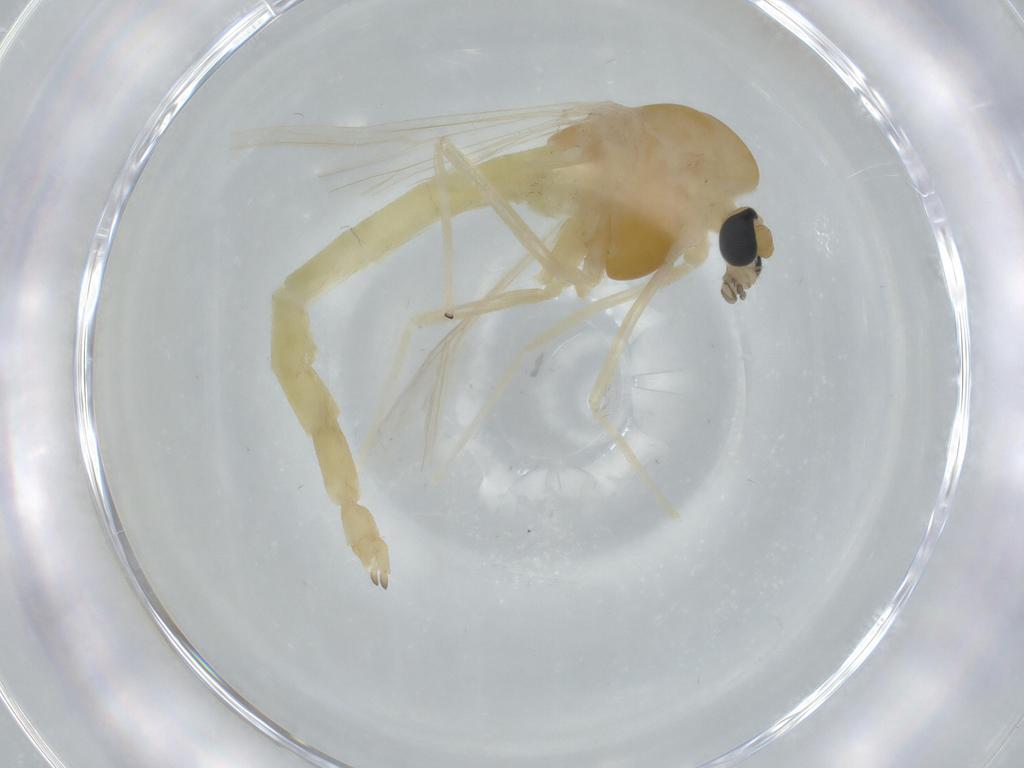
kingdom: Animalia
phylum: Arthropoda
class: Insecta
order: Diptera
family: Chironomidae
